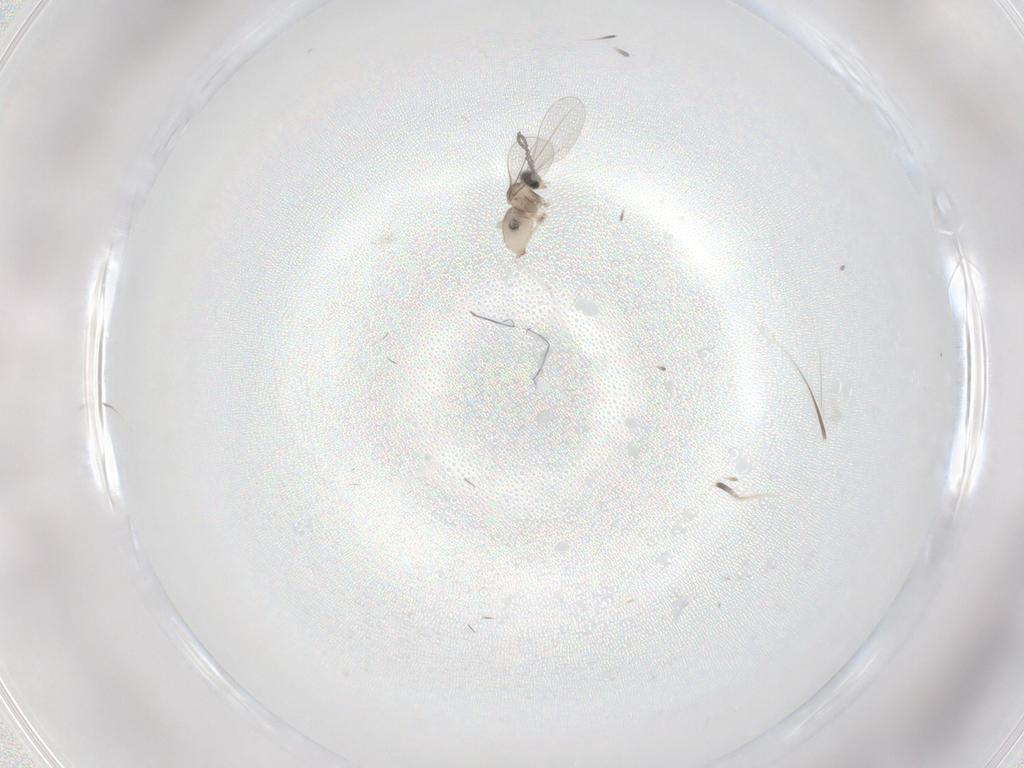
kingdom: Animalia
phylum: Arthropoda
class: Insecta
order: Diptera
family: Cecidomyiidae
